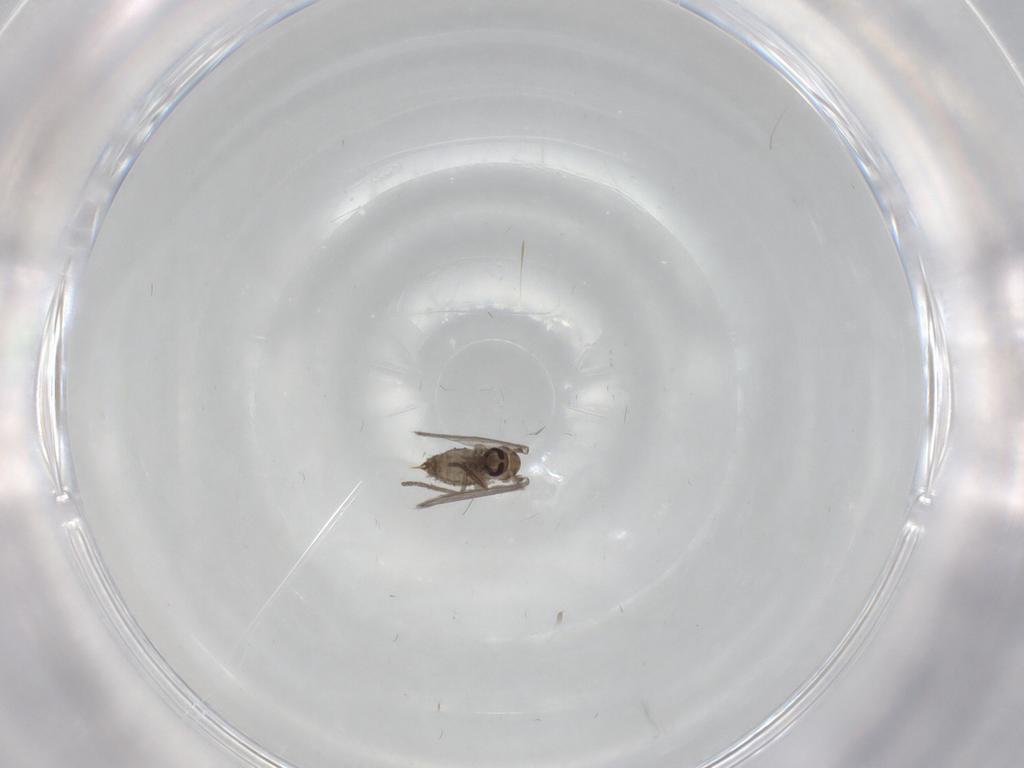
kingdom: Animalia
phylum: Arthropoda
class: Insecta
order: Diptera
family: Psychodidae
